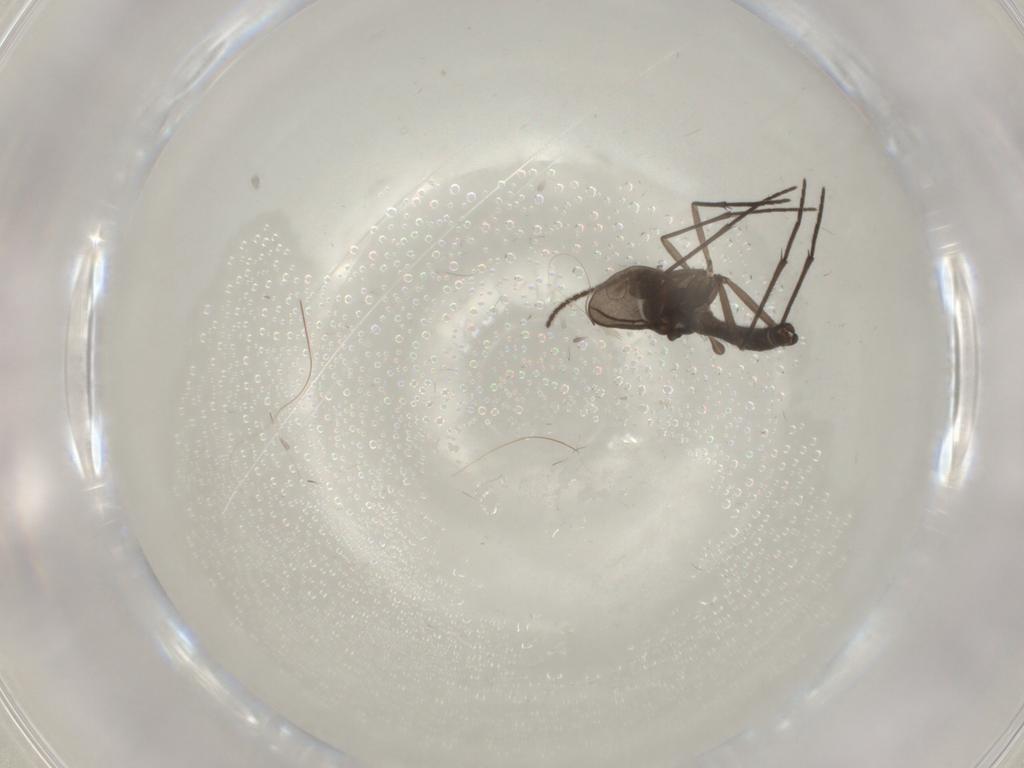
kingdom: Animalia
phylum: Arthropoda
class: Insecta
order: Diptera
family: Sciaridae
